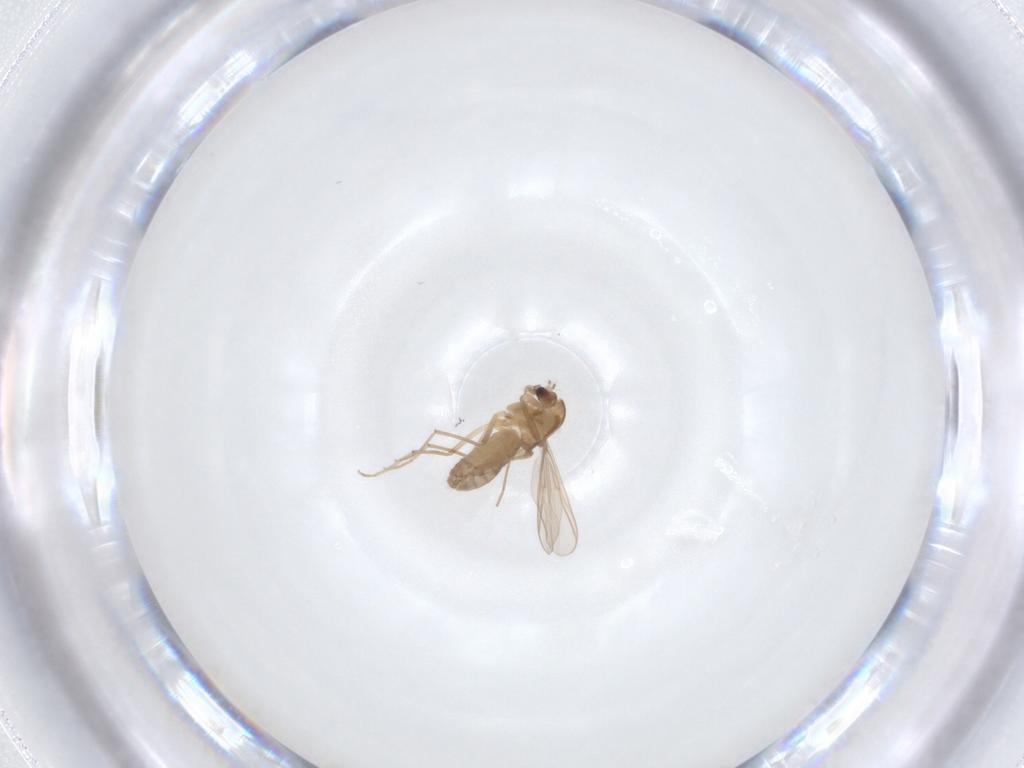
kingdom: Animalia
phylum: Arthropoda
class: Insecta
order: Diptera
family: Chironomidae
